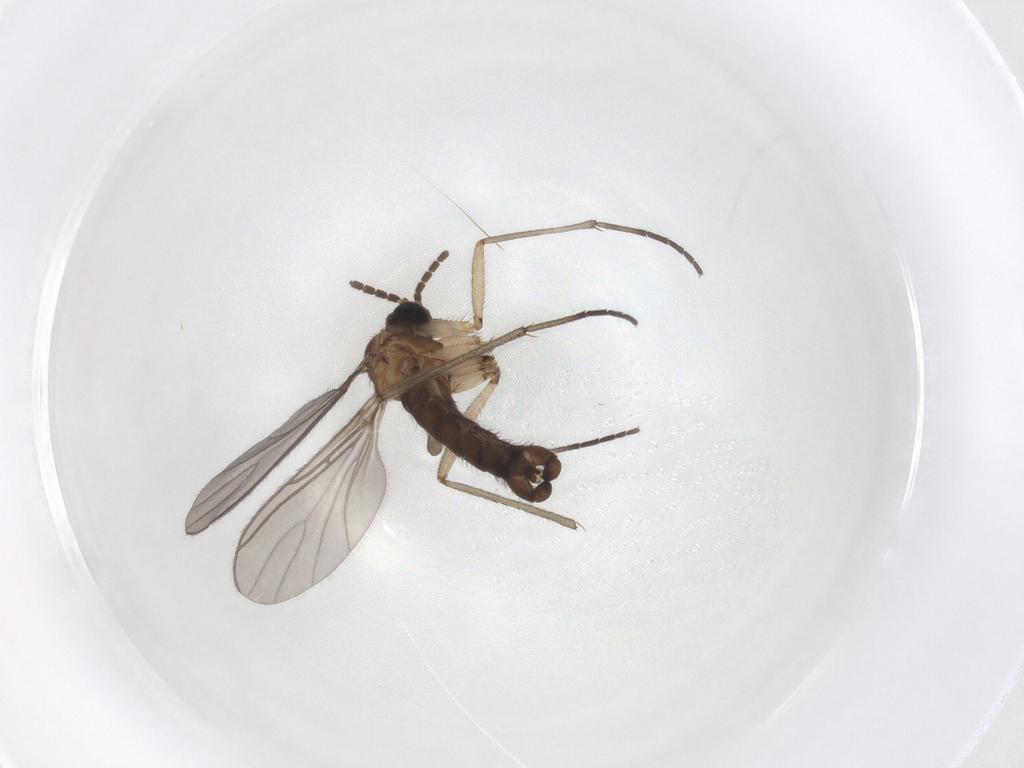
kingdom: Animalia
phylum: Arthropoda
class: Insecta
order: Diptera
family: Sciaridae
